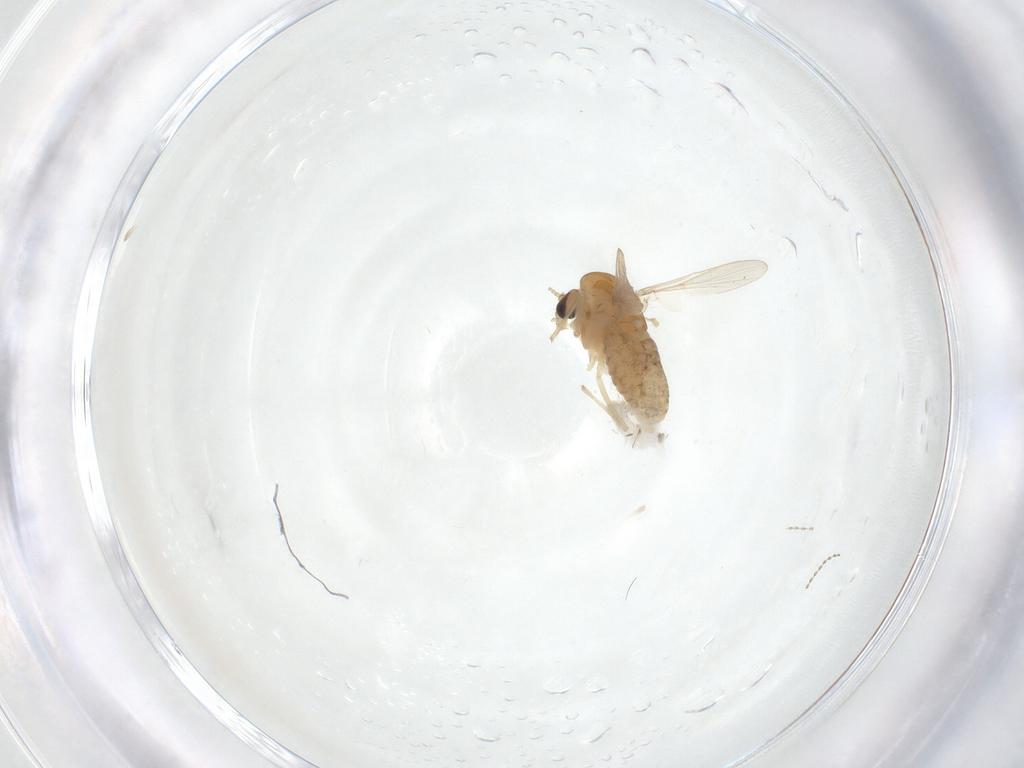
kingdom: Animalia
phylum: Arthropoda
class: Insecta
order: Diptera
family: Chironomidae
